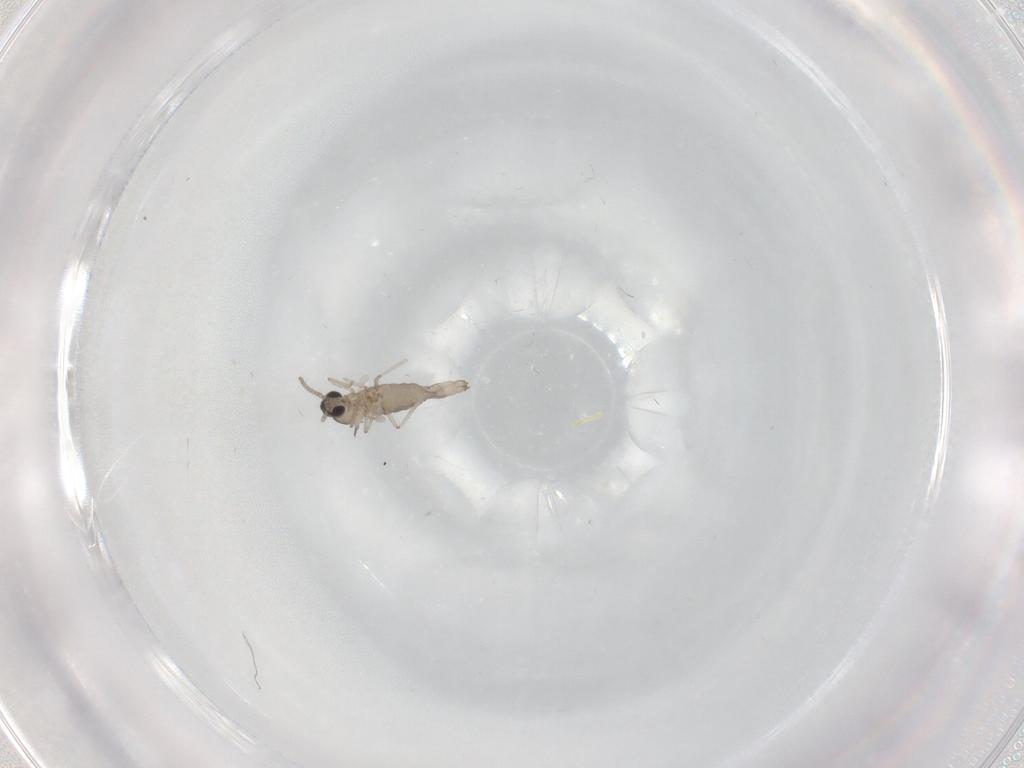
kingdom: Animalia
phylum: Arthropoda
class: Insecta
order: Diptera
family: Cecidomyiidae
